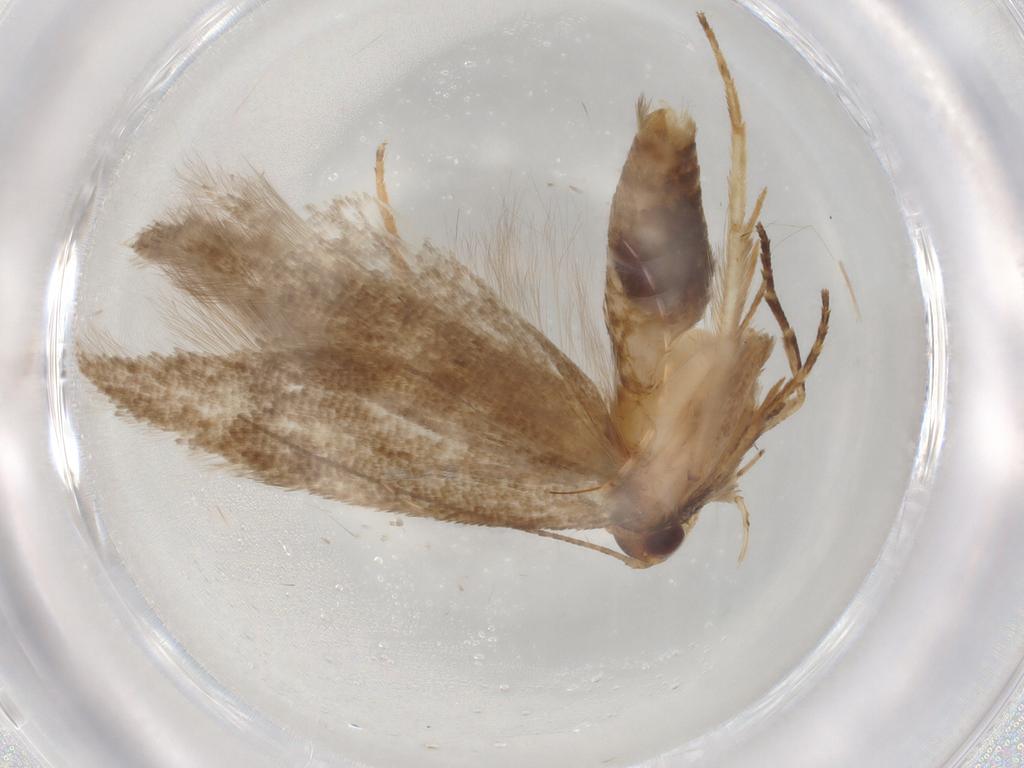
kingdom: Animalia
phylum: Arthropoda
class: Insecta
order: Lepidoptera
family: Gelechiidae
